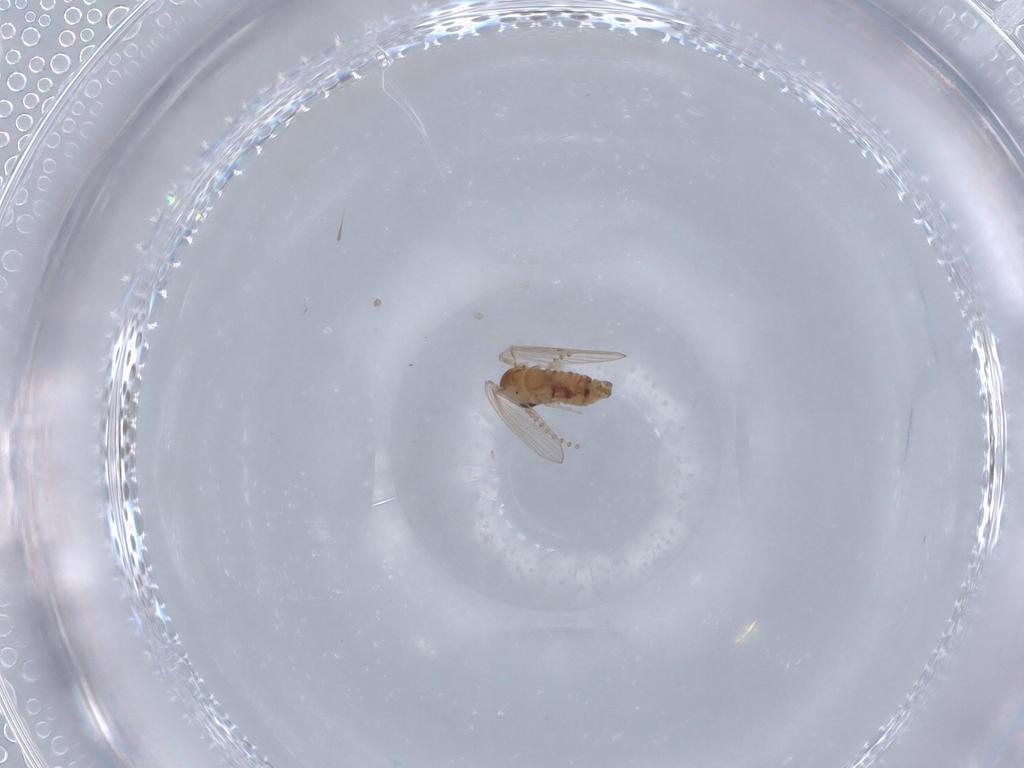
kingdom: Animalia
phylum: Arthropoda
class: Insecta
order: Diptera
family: Psychodidae
